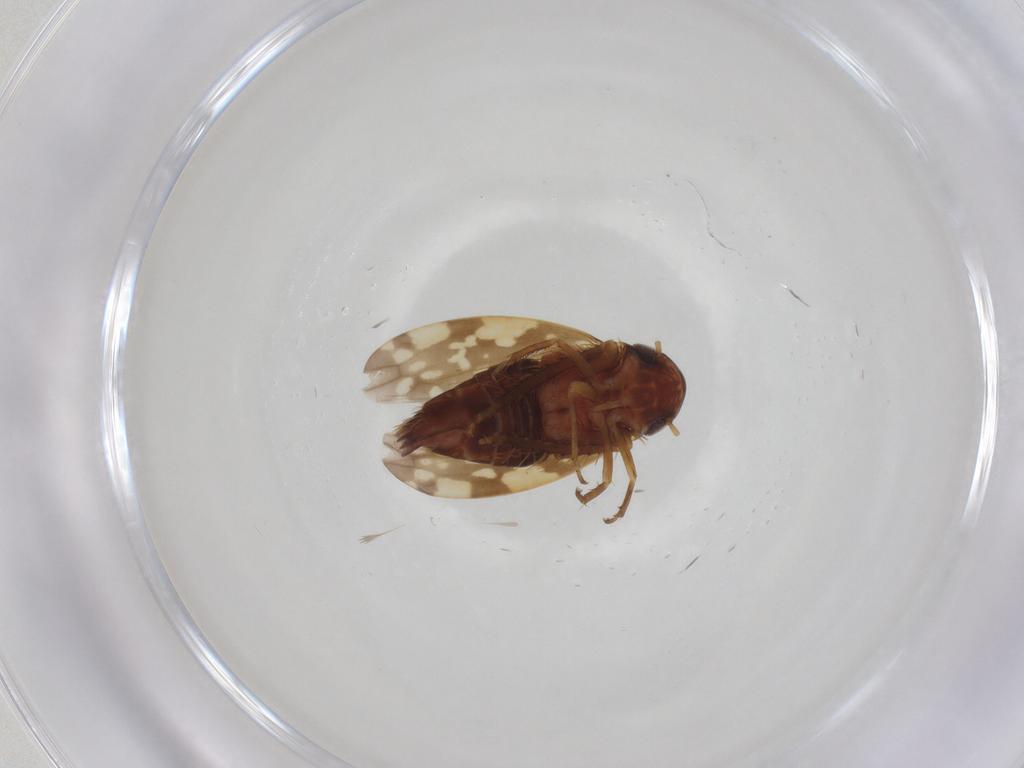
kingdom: Animalia
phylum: Arthropoda
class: Insecta
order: Hemiptera
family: Cicadellidae
